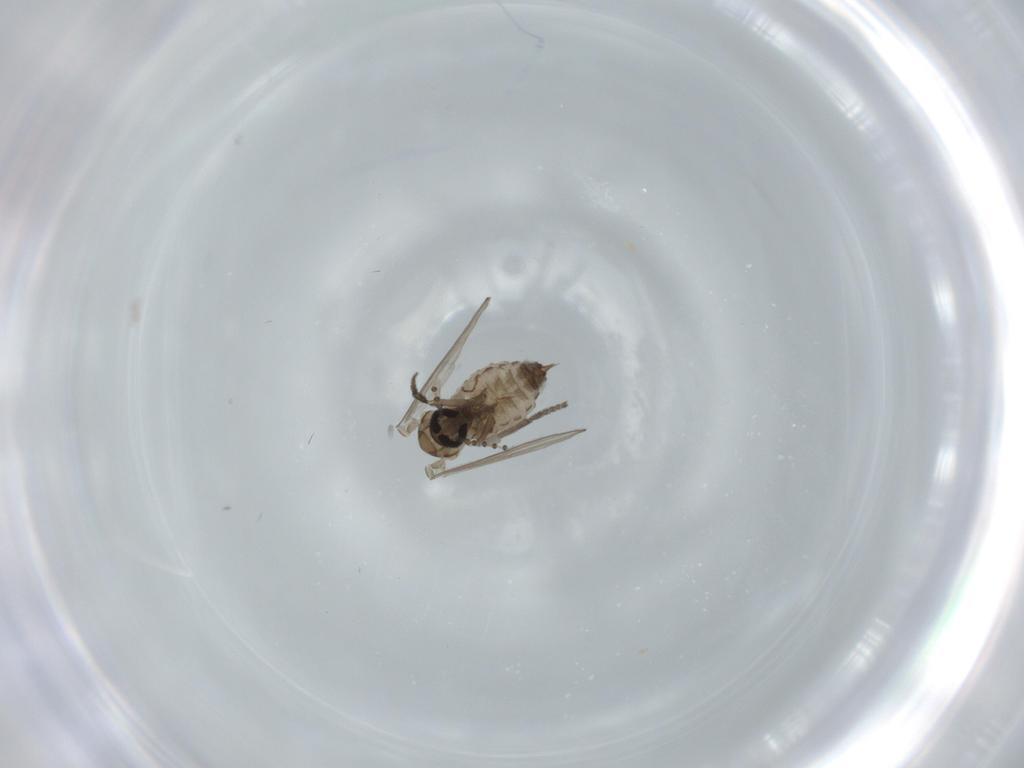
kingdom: Animalia
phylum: Arthropoda
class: Insecta
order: Diptera
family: Psychodidae
